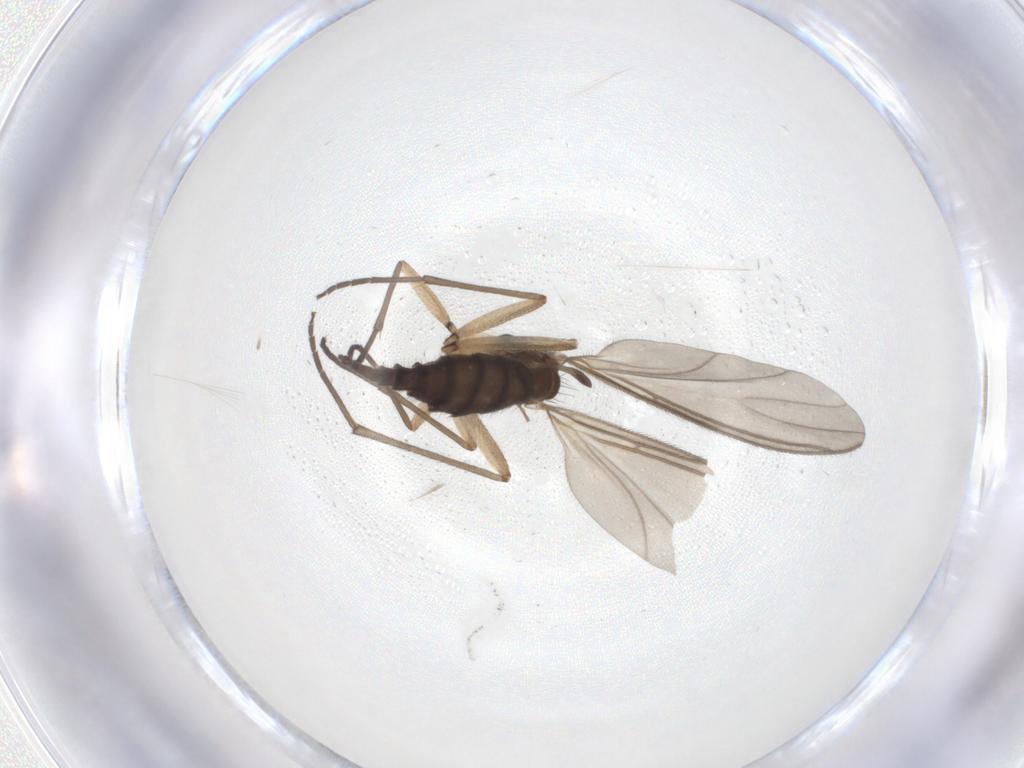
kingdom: Animalia
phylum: Arthropoda
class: Insecta
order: Diptera
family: Sciaridae
